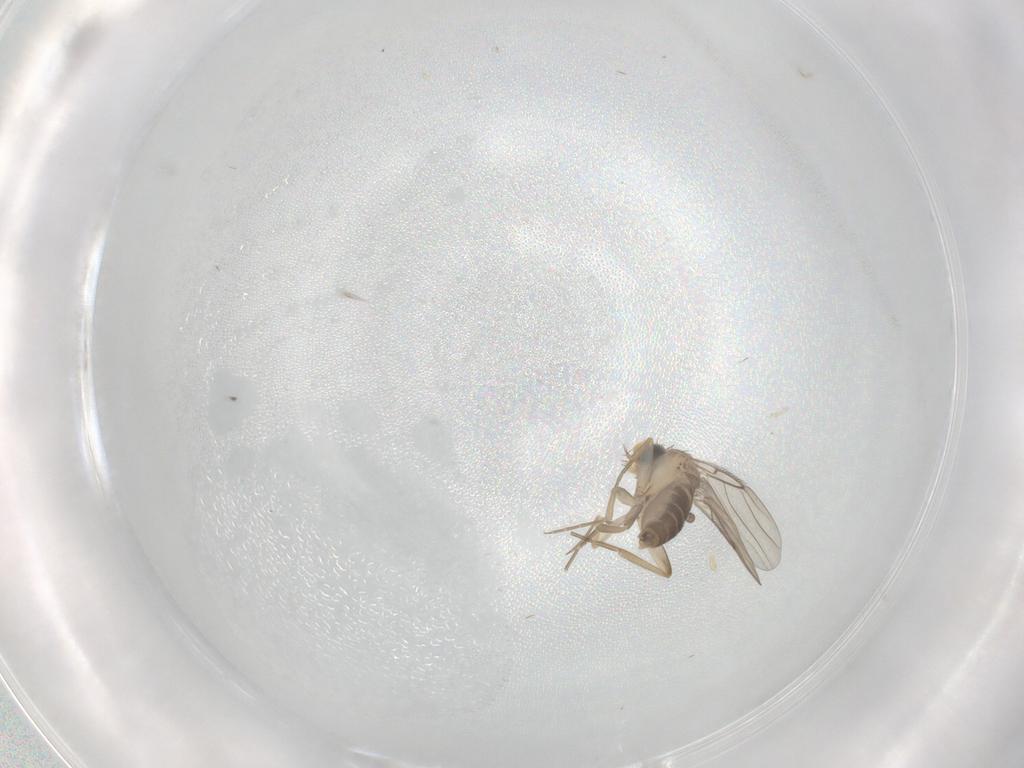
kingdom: Animalia
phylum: Arthropoda
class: Insecta
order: Diptera
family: Phoridae
